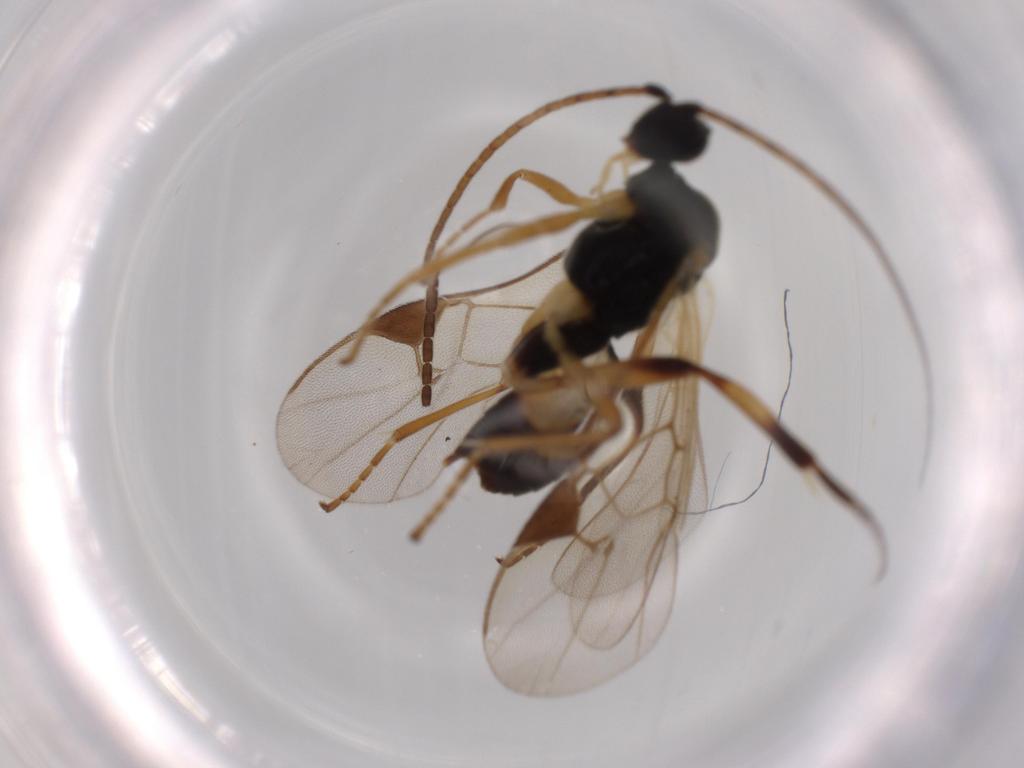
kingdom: Animalia
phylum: Arthropoda
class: Insecta
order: Hymenoptera
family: Braconidae
